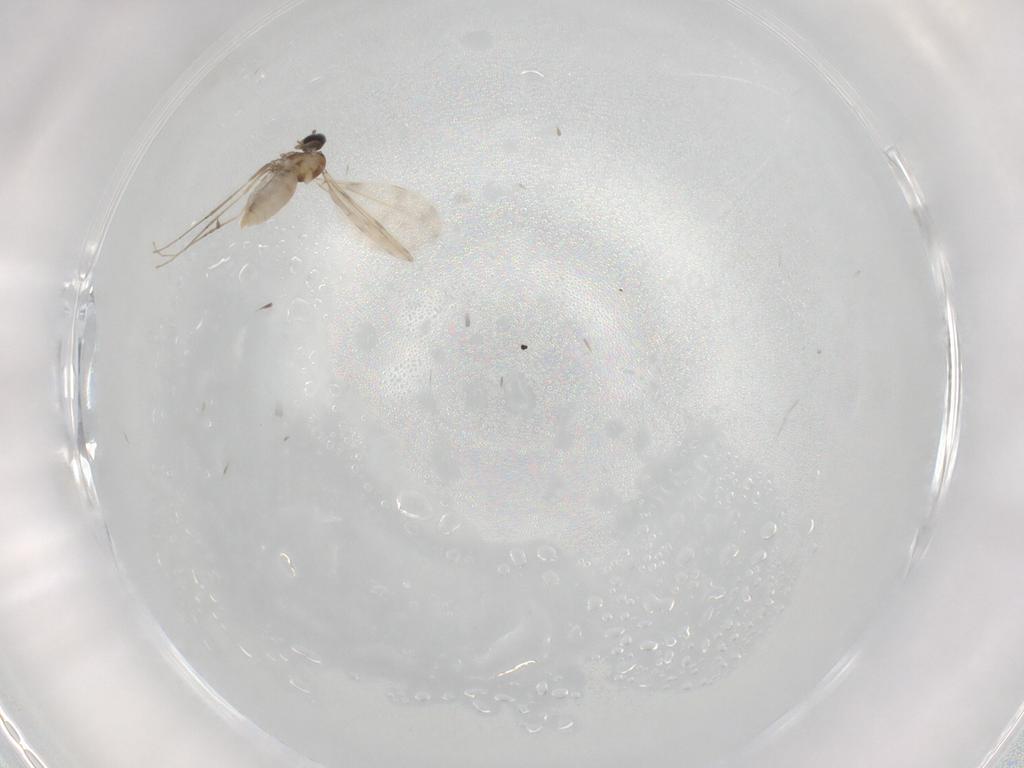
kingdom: Animalia
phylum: Arthropoda
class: Insecta
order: Diptera
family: Cecidomyiidae
